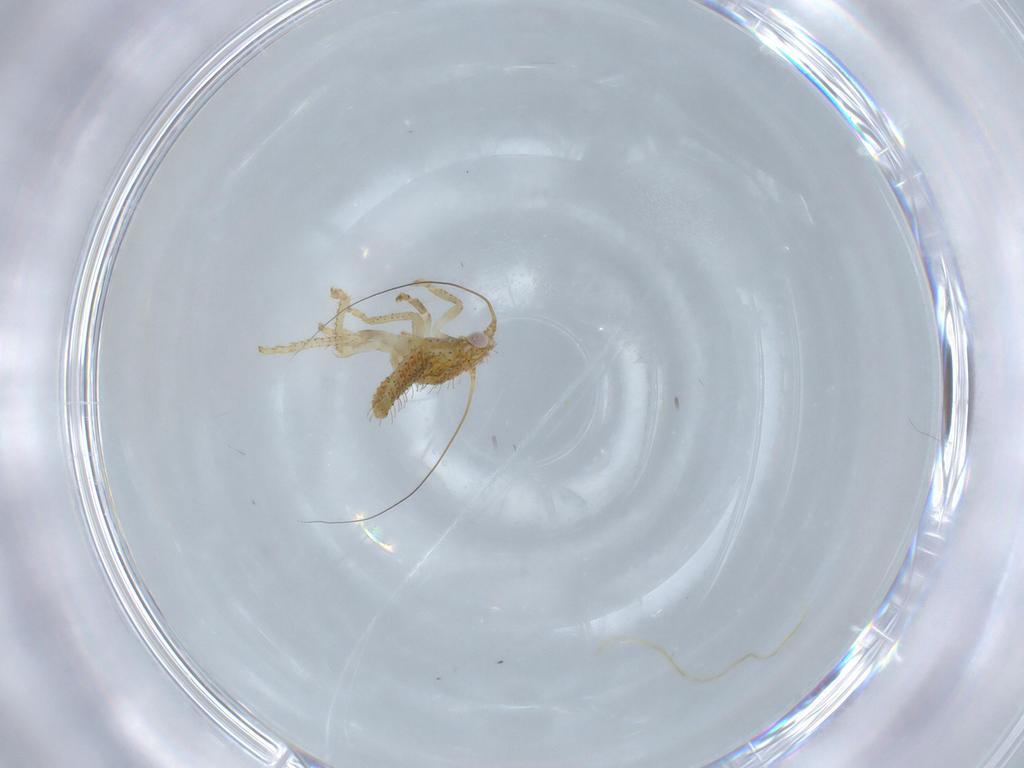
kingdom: Animalia
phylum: Arthropoda
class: Insecta
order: Hemiptera
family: Cicadellidae
